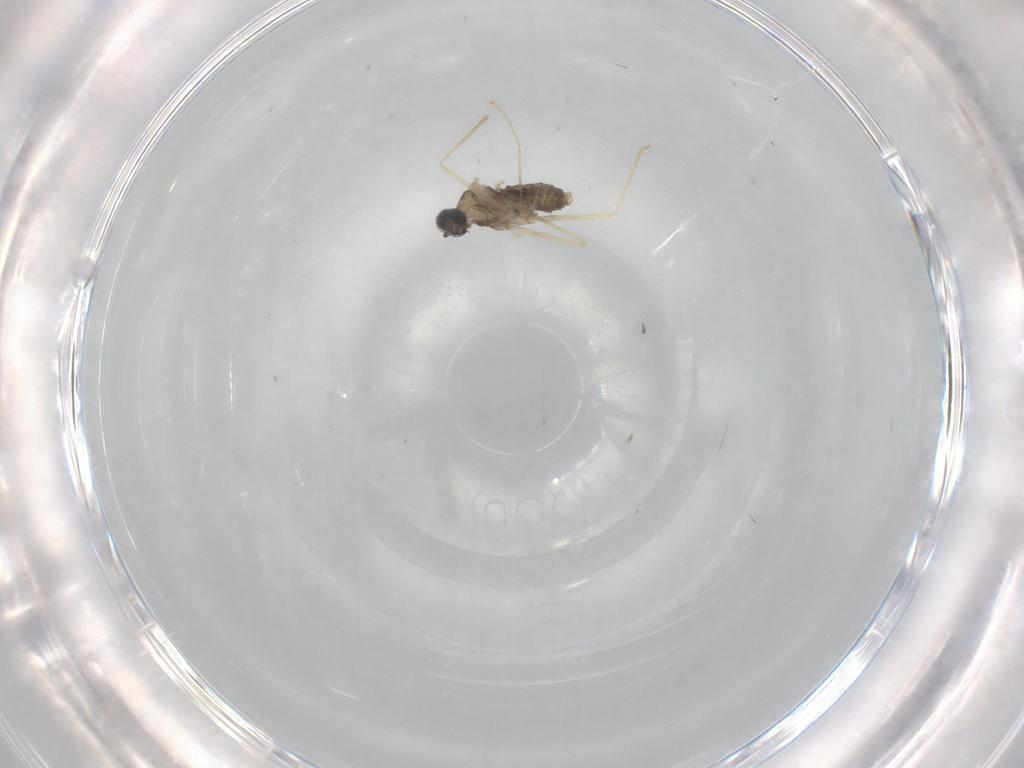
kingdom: Animalia
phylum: Arthropoda
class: Insecta
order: Diptera
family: Cecidomyiidae
